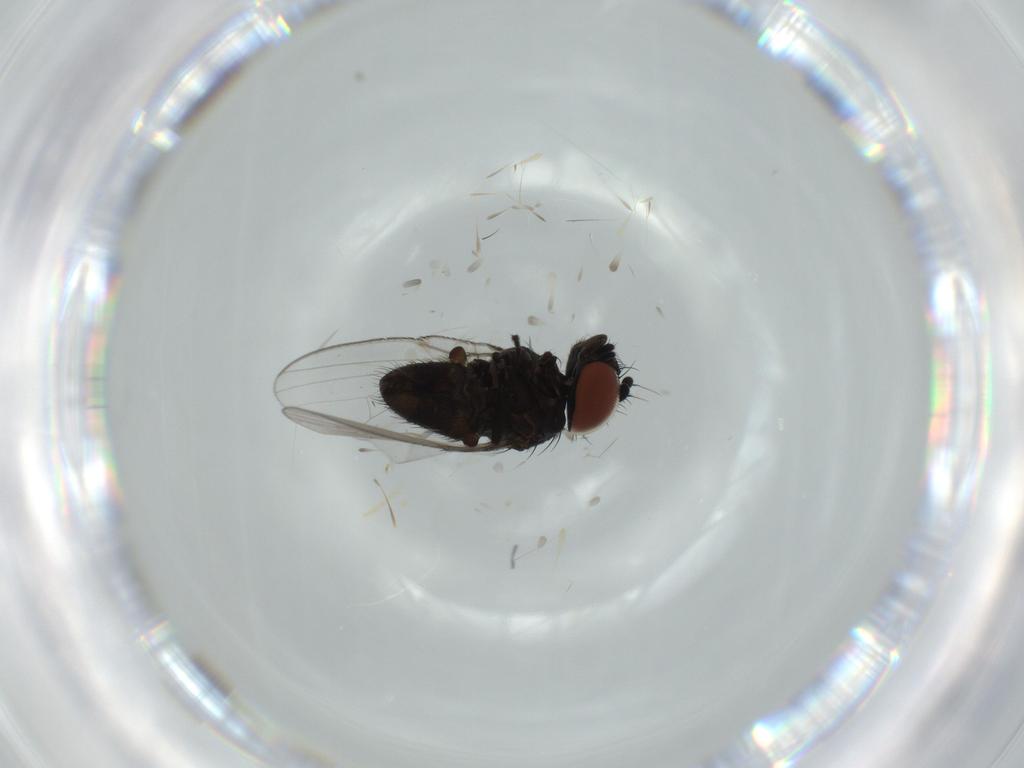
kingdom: Animalia
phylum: Arthropoda
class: Insecta
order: Diptera
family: Milichiidae
